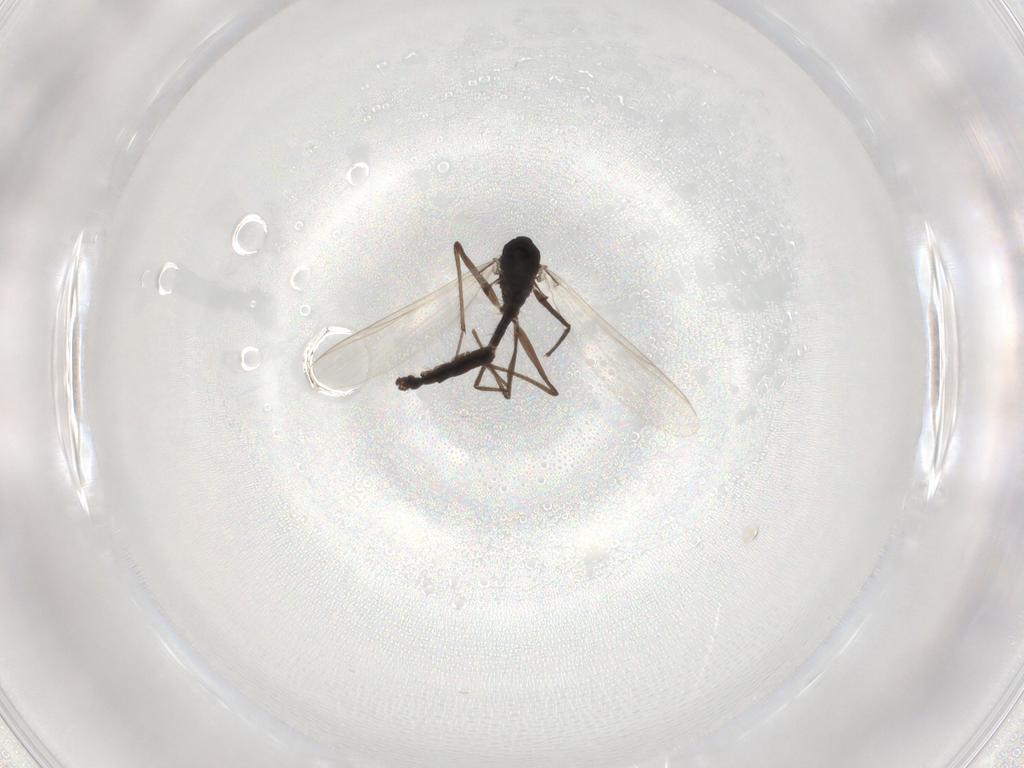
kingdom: Animalia
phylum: Arthropoda
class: Insecta
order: Diptera
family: Chironomidae
